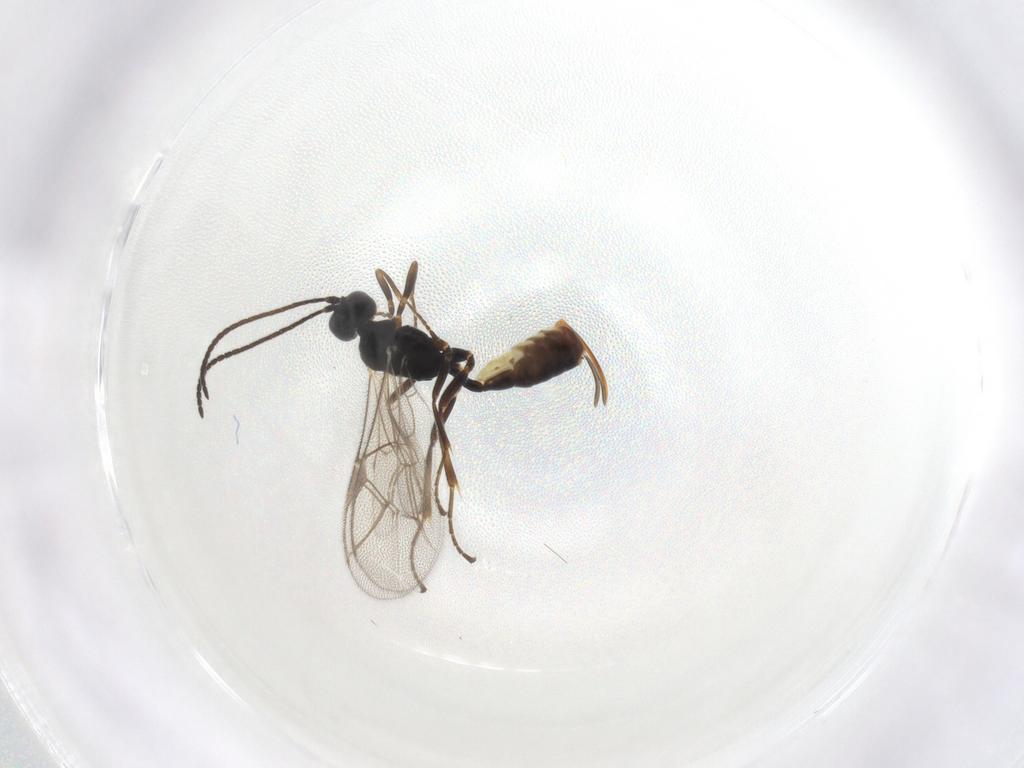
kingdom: Animalia
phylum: Arthropoda
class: Insecta
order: Hymenoptera
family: Ichneumonidae
